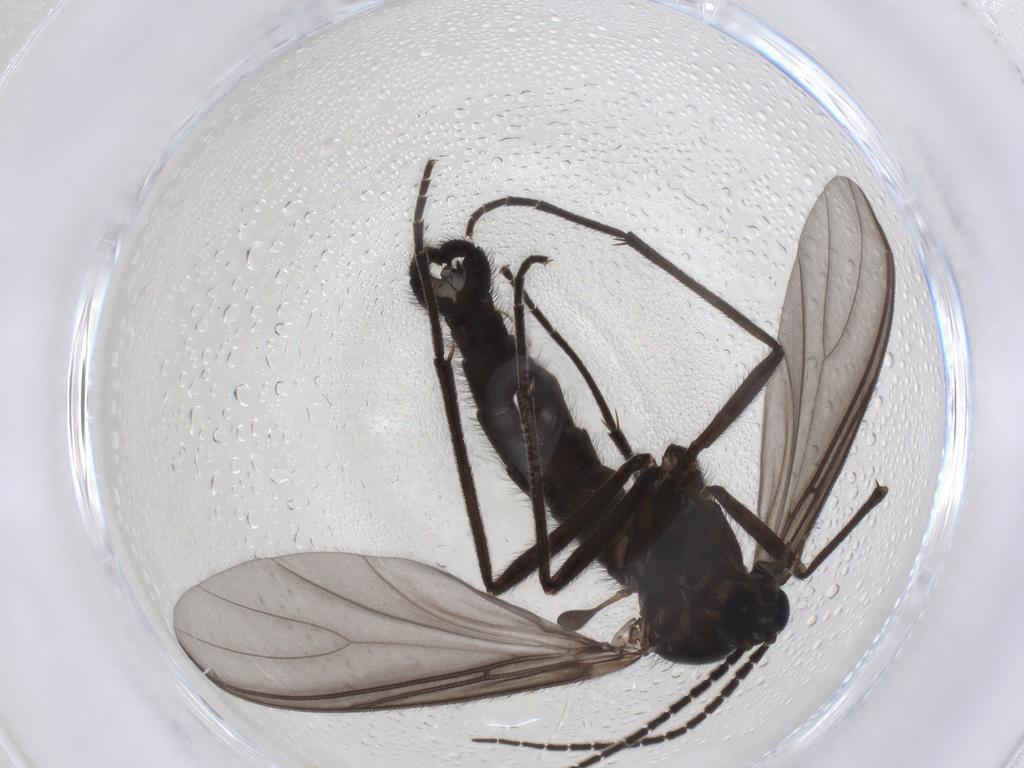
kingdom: Animalia
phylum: Arthropoda
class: Insecta
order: Diptera
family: Chironomidae
